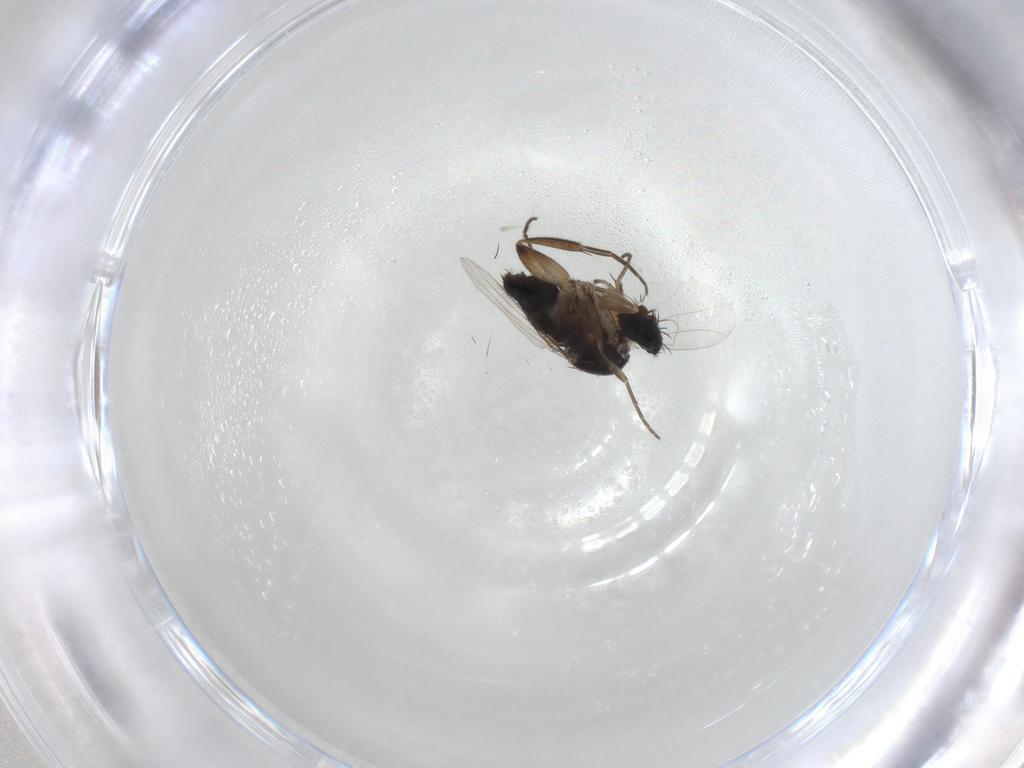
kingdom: Animalia
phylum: Arthropoda
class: Insecta
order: Diptera
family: Phoridae
